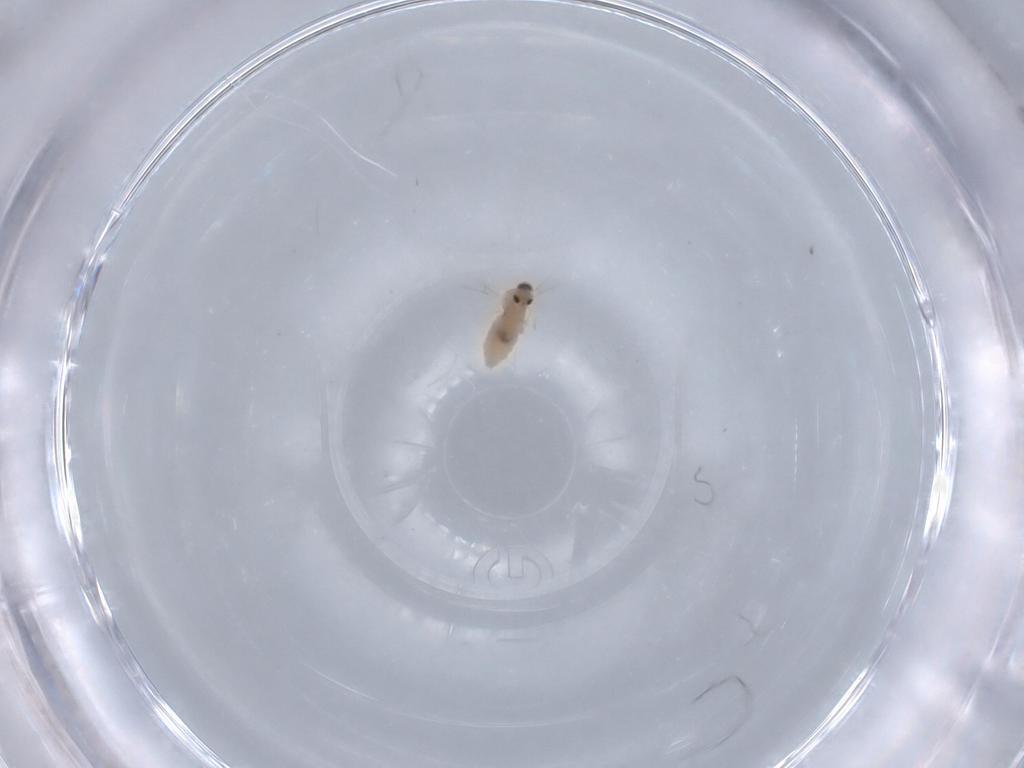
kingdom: Animalia
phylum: Arthropoda
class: Insecta
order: Diptera
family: Cecidomyiidae
